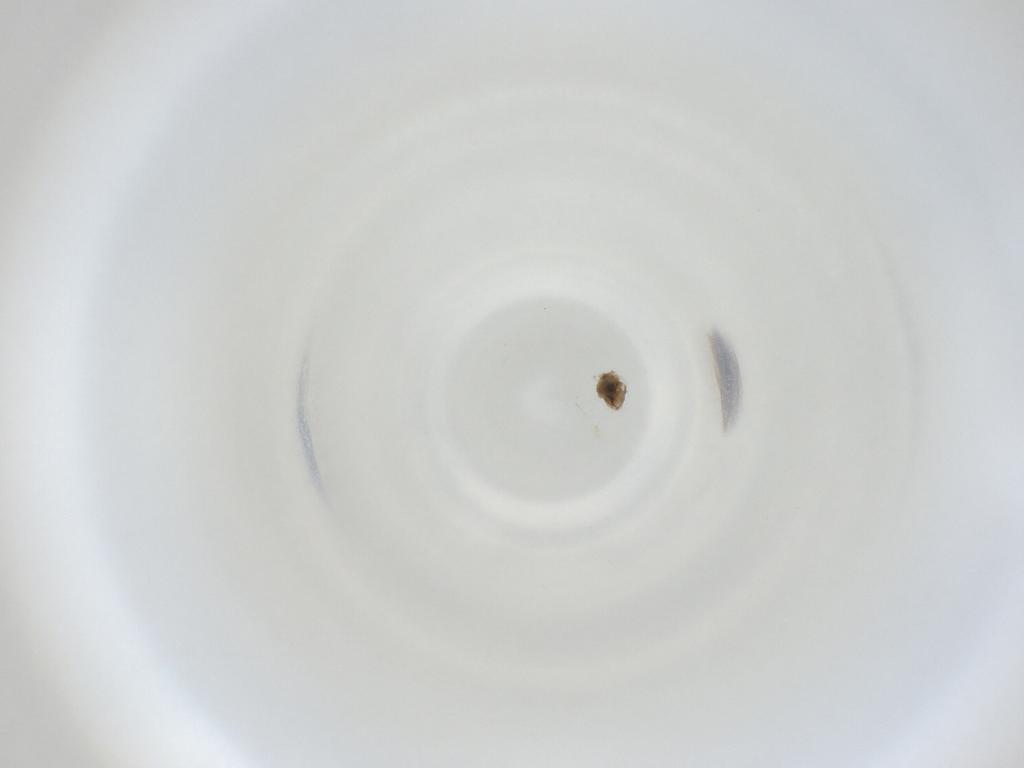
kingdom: Animalia
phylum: Arthropoda
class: Insecta
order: Diptera
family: Cecidomyiidae
